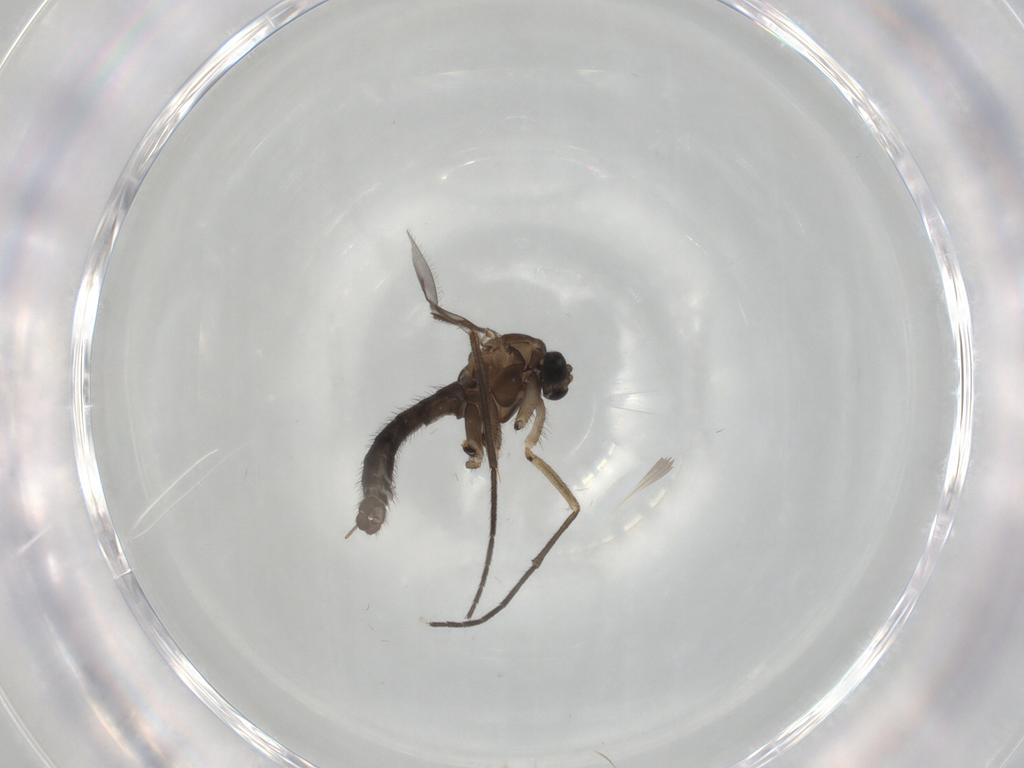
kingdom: Animalia
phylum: Arthropoda
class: Insecta
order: Diptera
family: Sciaridae
